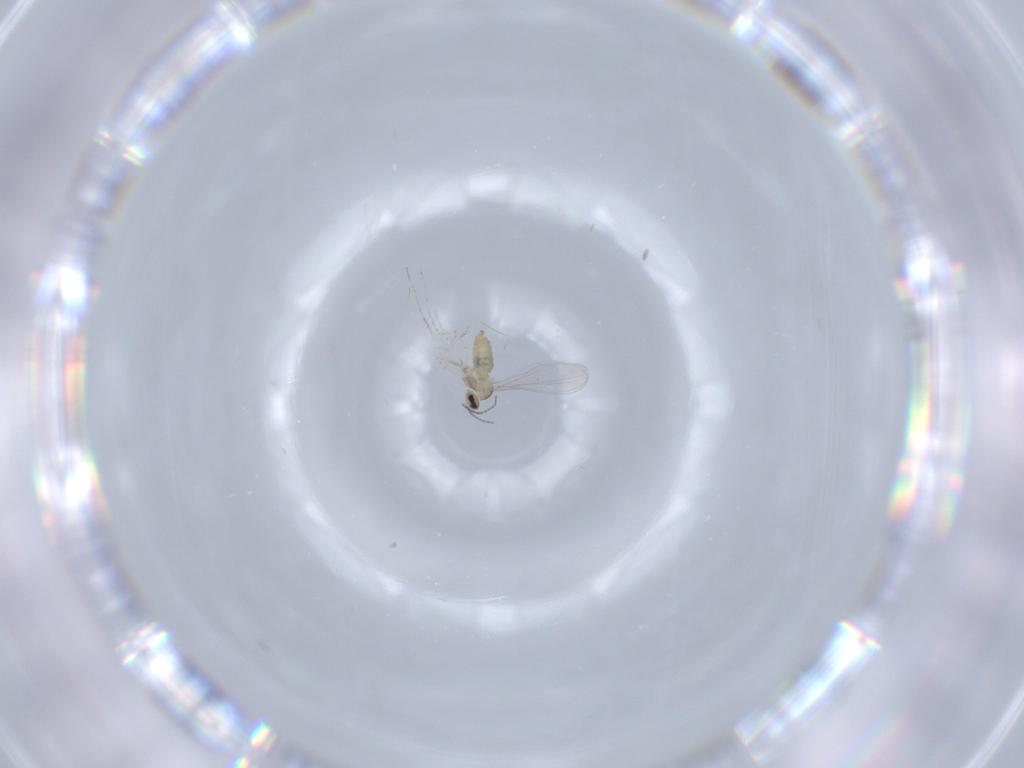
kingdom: Animalia
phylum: Arthropoda
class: Insecta
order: Diptera
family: Cecidomyiidae
